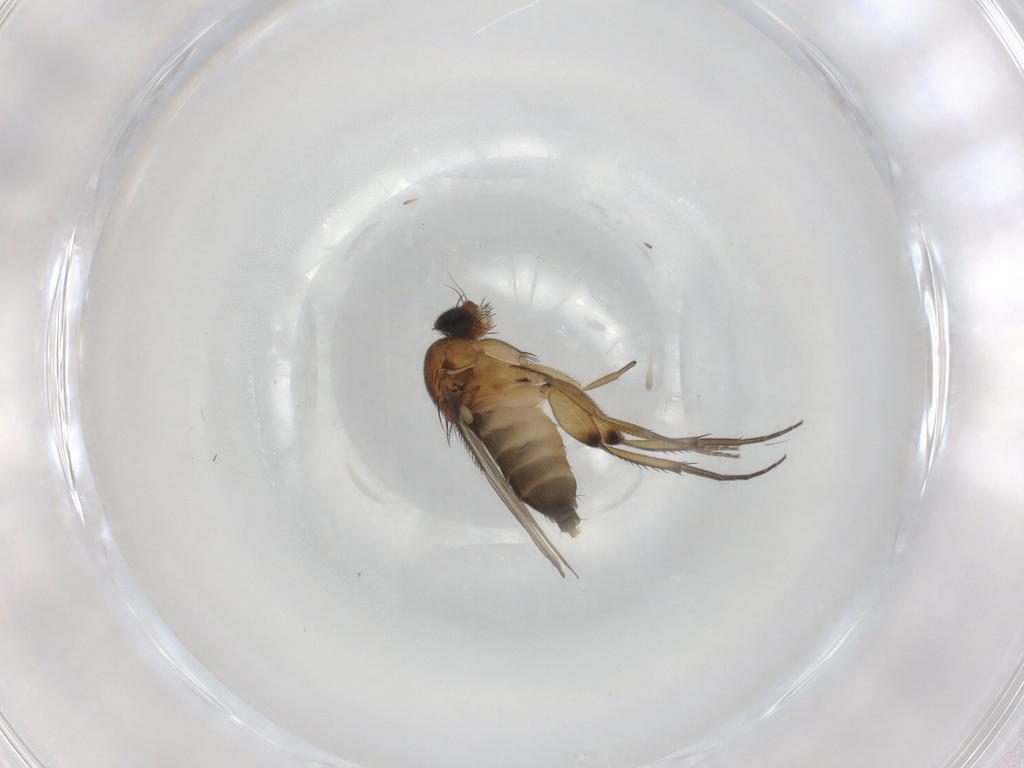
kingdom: Animalia
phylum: Arthropoda
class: Insecta
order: Diptera
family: Phoridae
